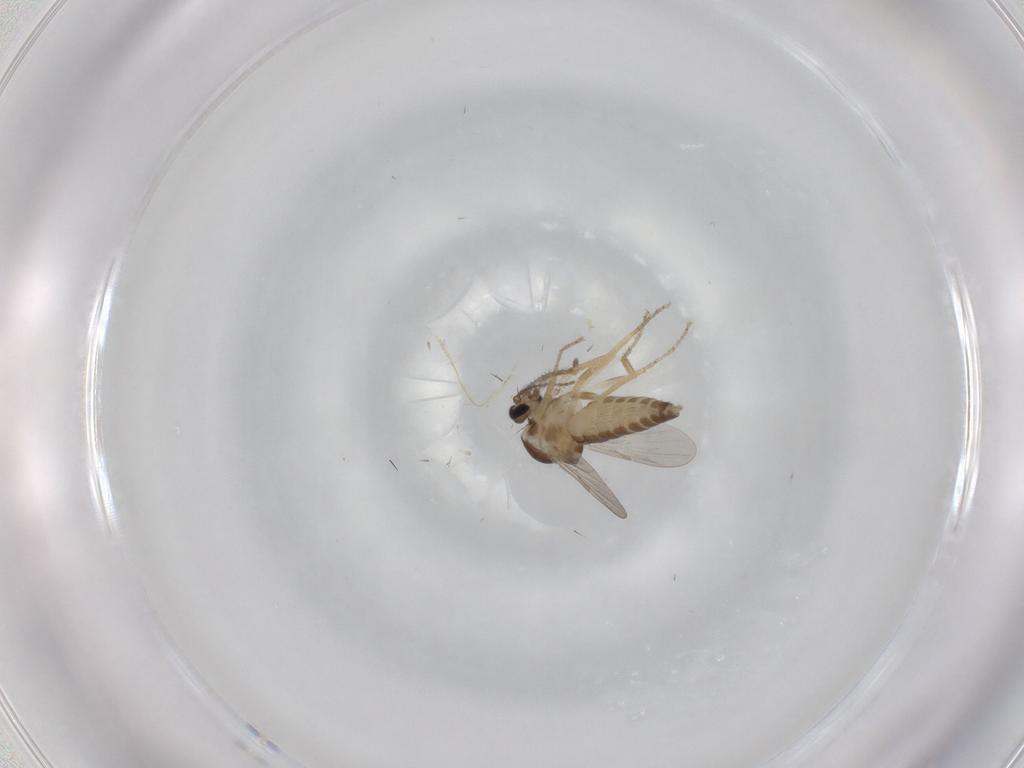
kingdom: Animalia
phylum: Arthropoda
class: Insecta
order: Diptera
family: Ceratopogonidae
